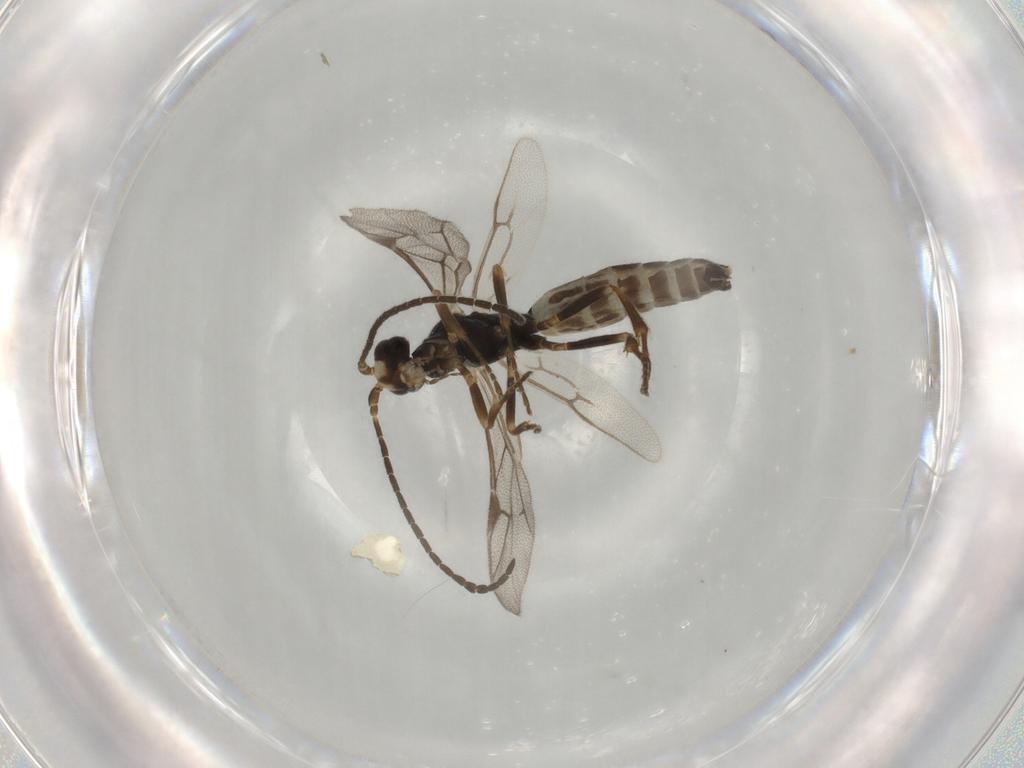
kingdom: Animalia
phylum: Arthropoda
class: Insecta
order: Hymenoptera
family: Ichneumonidae
